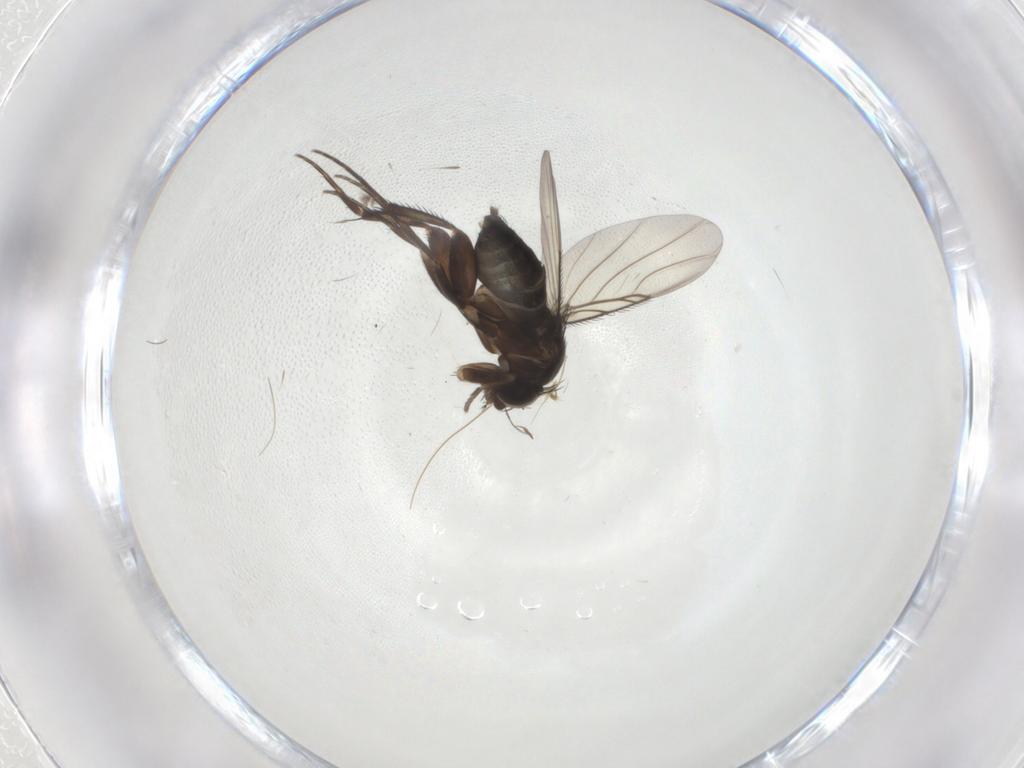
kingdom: Animalia
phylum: Arthropoda
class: Insecta
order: Diptera
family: Phoridae
